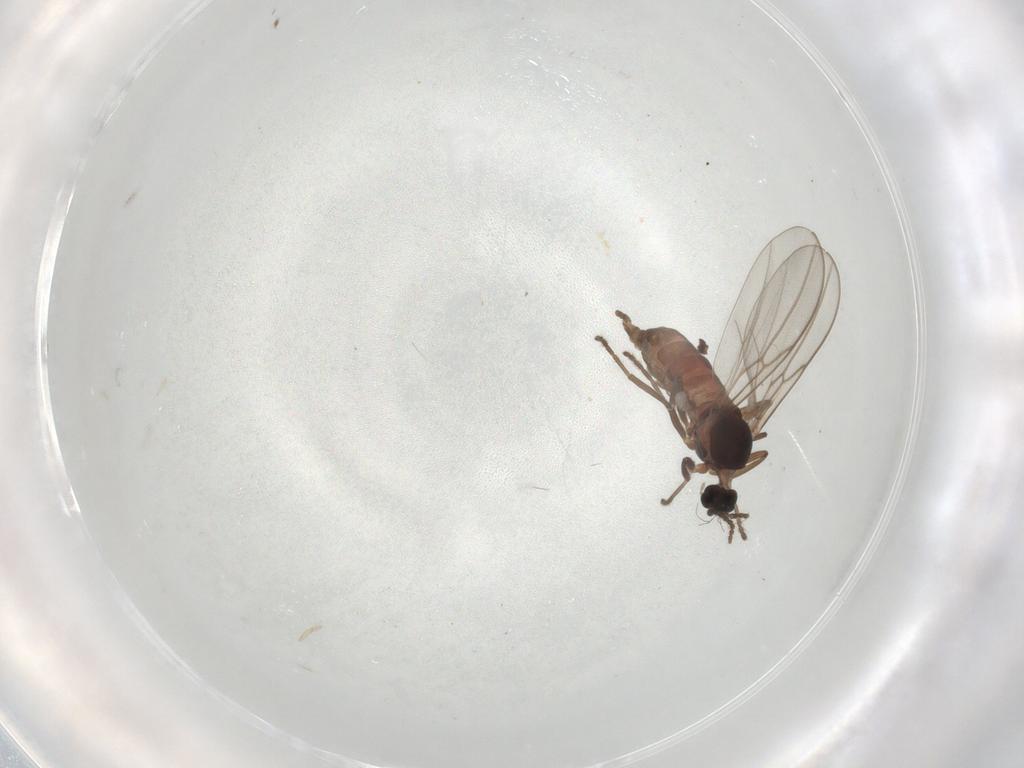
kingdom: Animalia
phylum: Arthropoda
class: Insecta
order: Diptera
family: Cecidomyiidae
